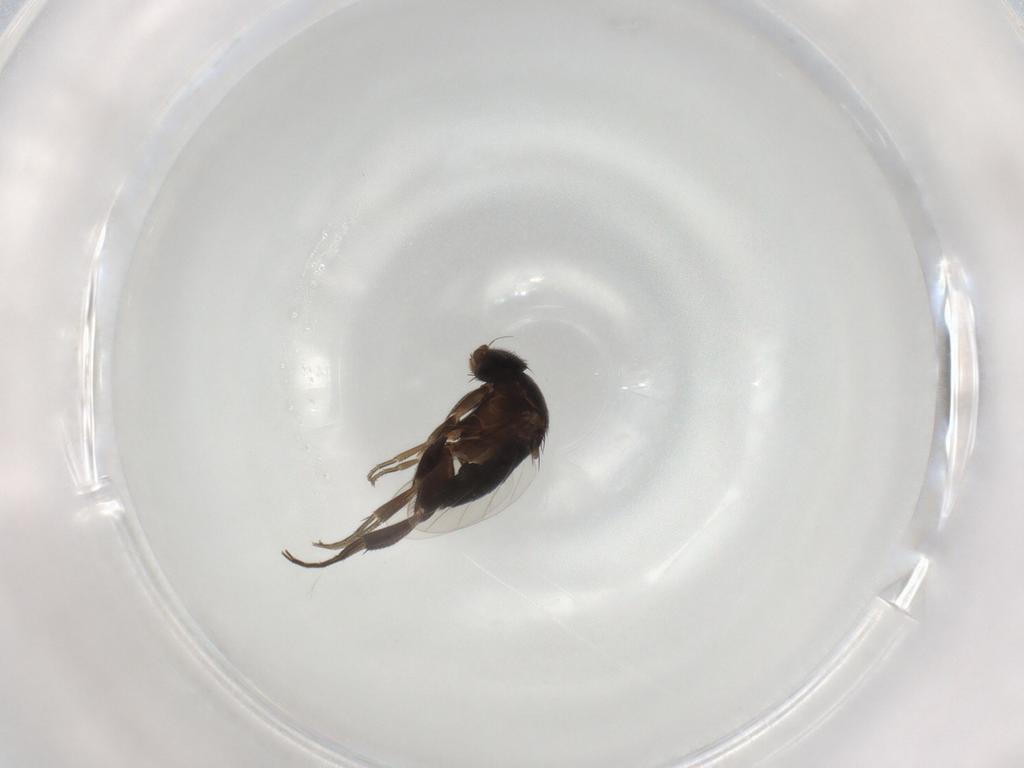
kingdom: Animalia
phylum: Arthropoda
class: Insecta
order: Diptera
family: Phoridae
